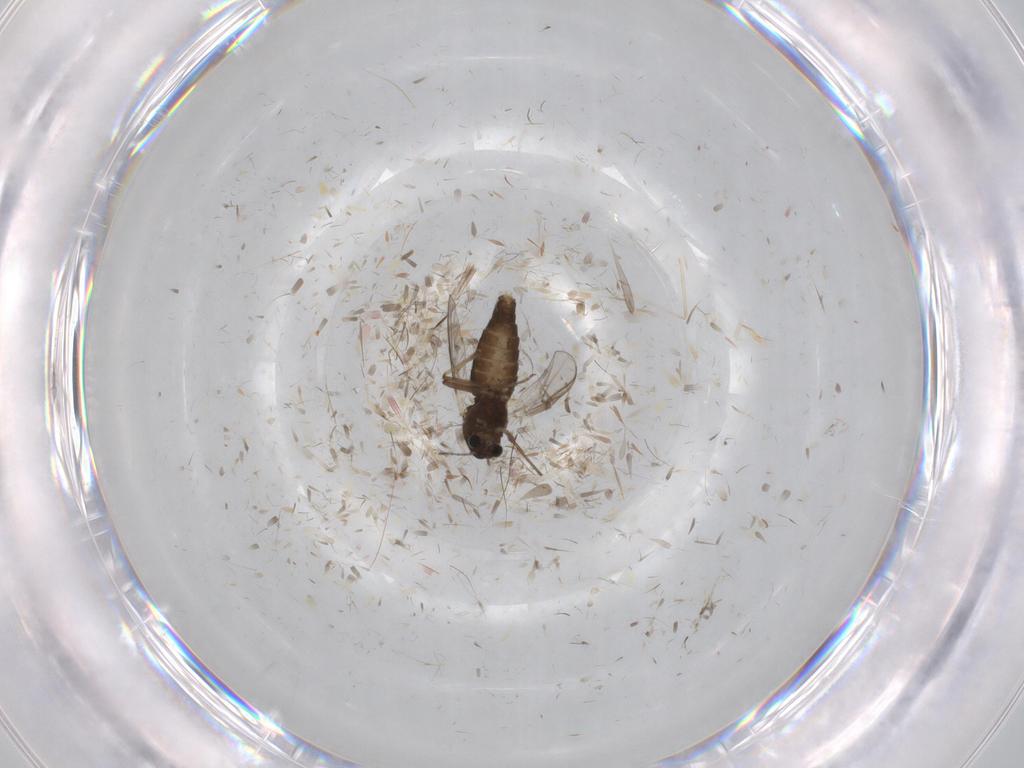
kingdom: Animalia
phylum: Arthropoda
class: Insecta
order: Diptera
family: Chironomidae
